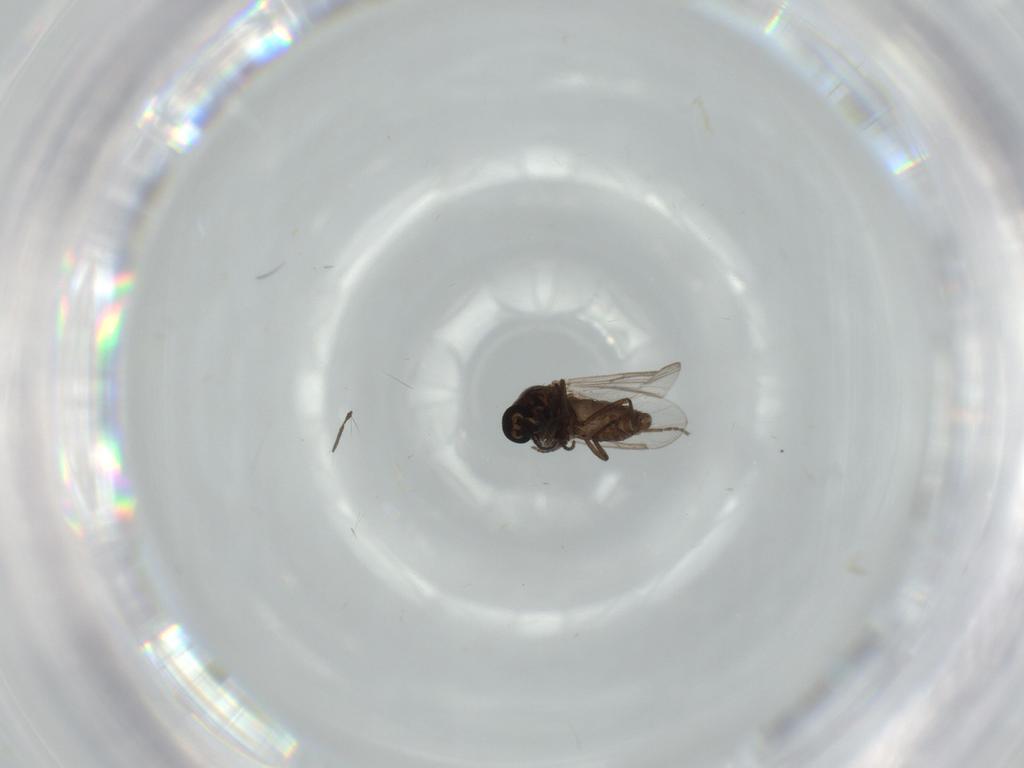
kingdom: Animalia
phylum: Arthropoda
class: Insecta
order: Diptera
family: Ceratopogonidae
